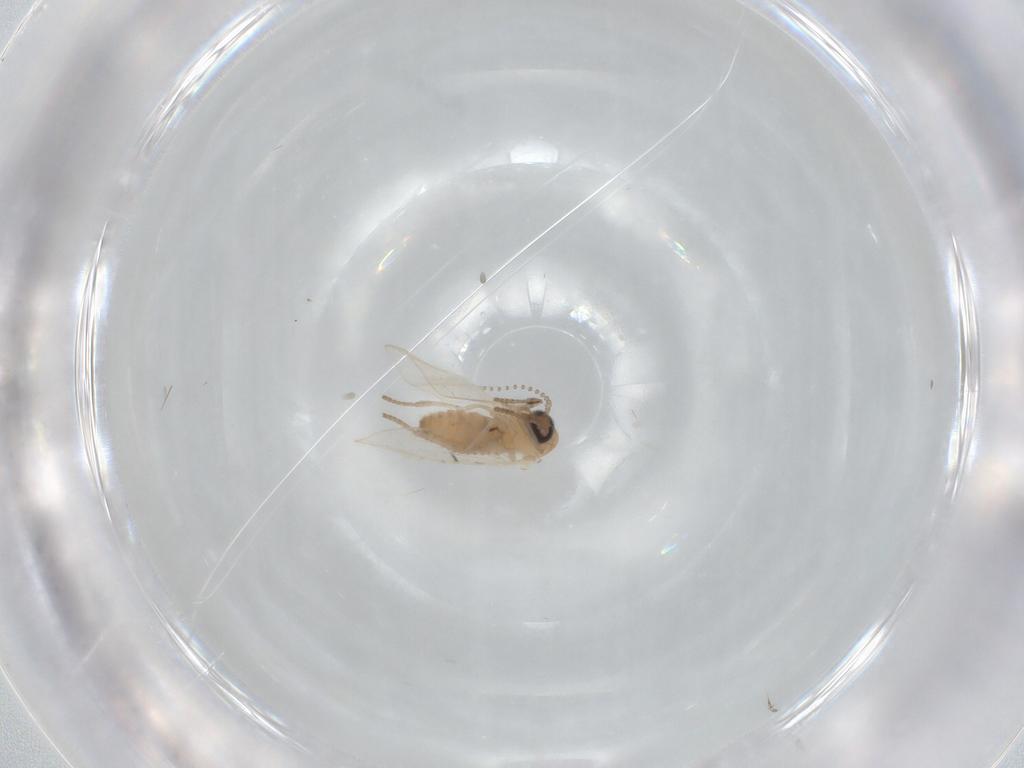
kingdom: Animalia
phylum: Arthropoda
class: Insecta
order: Diptera
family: Psychodidae
